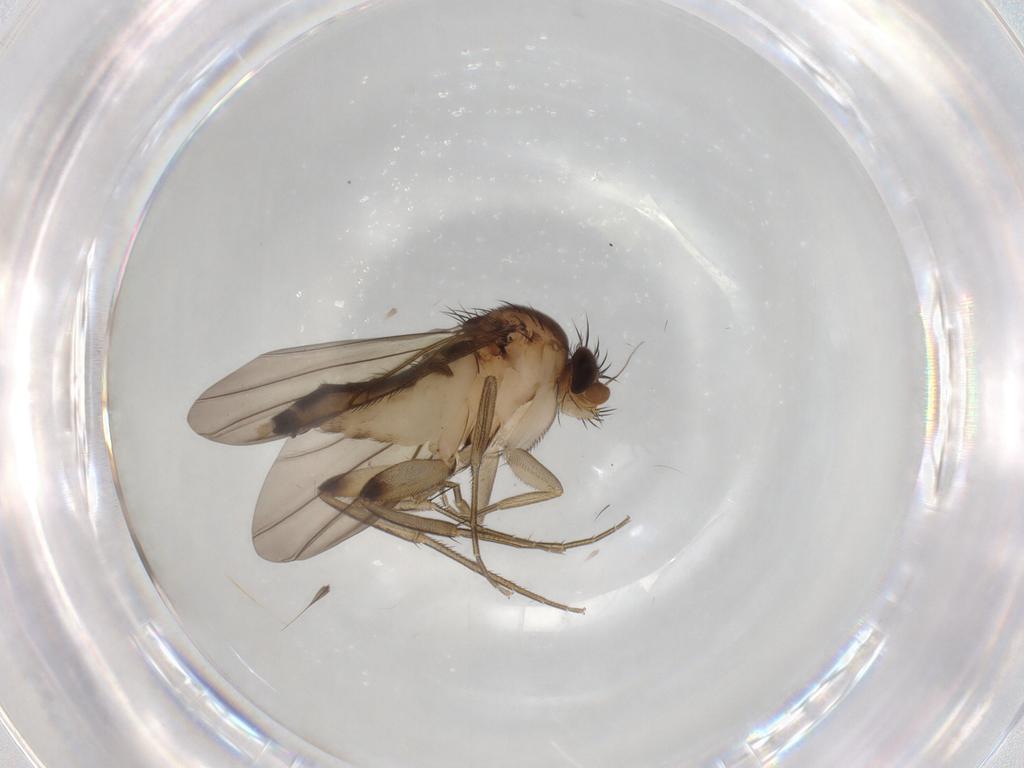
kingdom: Animalia
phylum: Arthropoda
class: Insecta
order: Diptera
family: Phoridae
